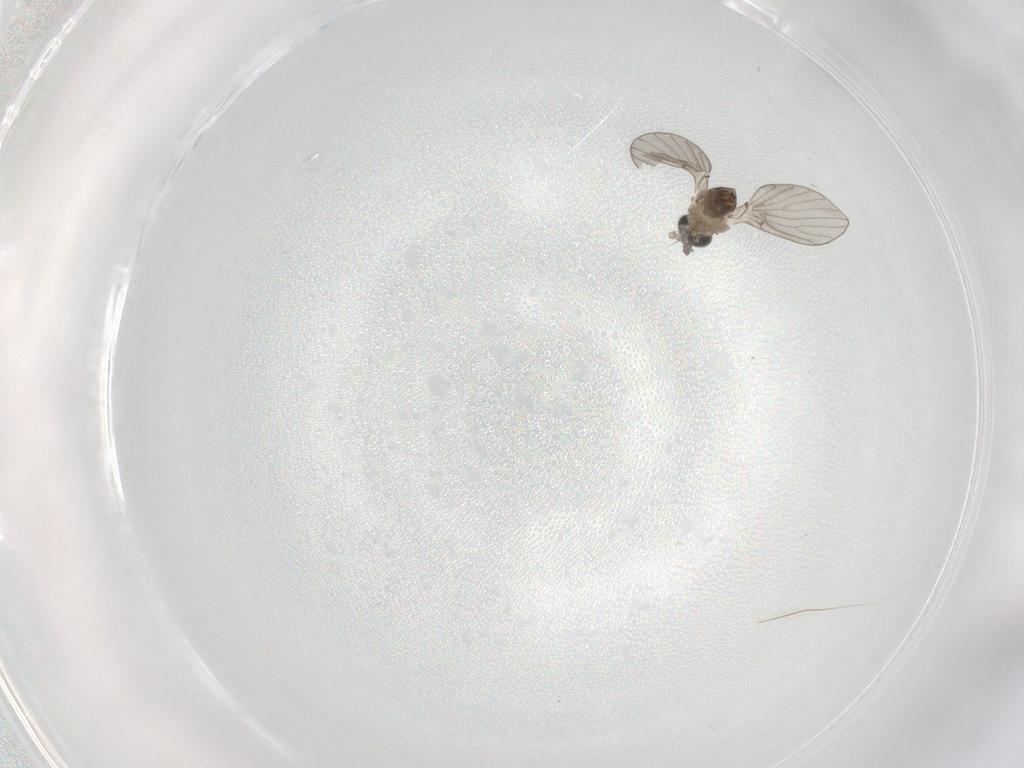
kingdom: Animalia
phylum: Arthropoda
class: Insecta
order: Diptera
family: Psychodidae
